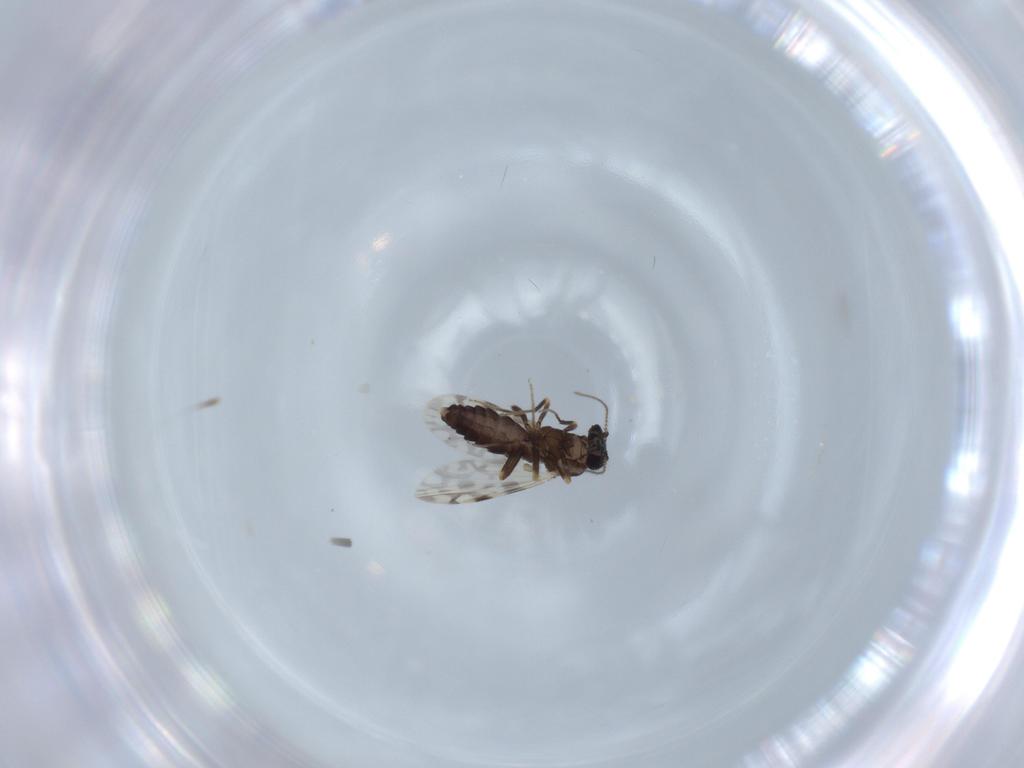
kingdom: Animalia
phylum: Arthropoda
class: Insecta
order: Diptera
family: Ceratopogonidae
